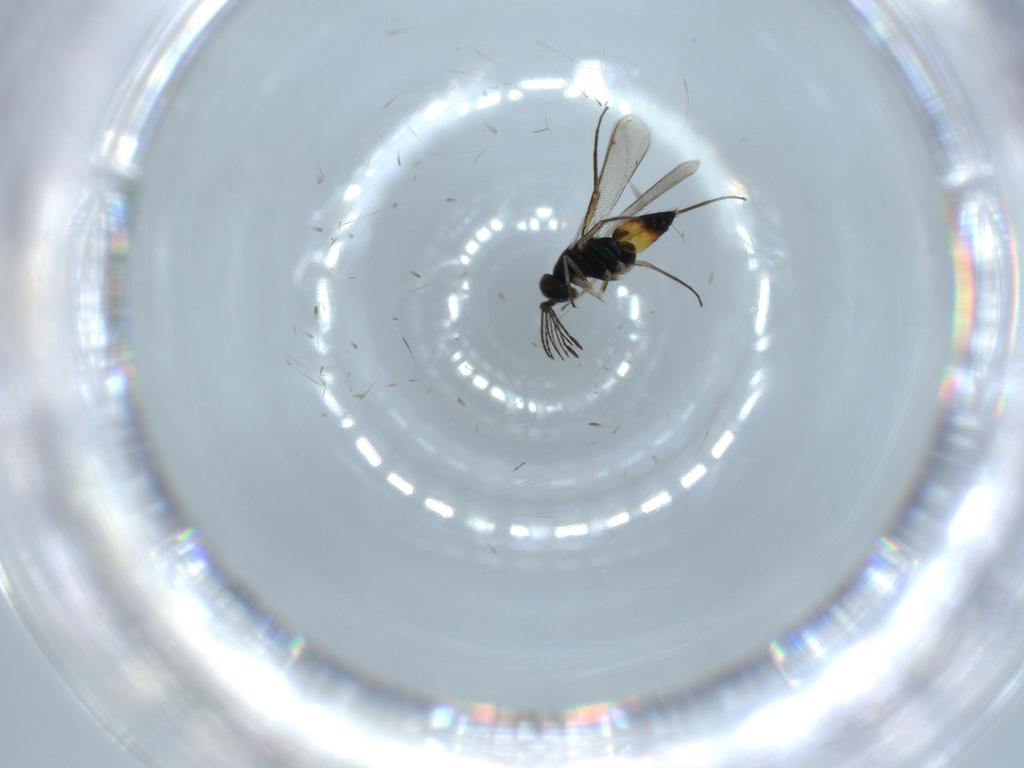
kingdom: Animalia
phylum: Arthropoda
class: Insecta
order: Hymenoptera
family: Eulophidae
